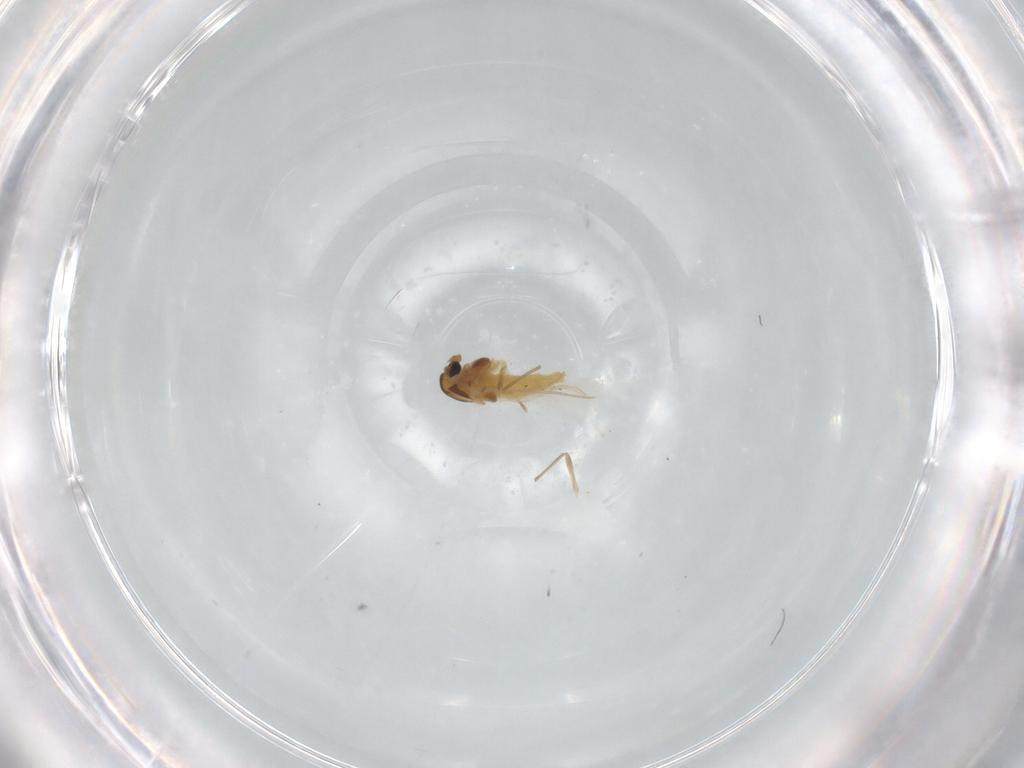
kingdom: Animalia
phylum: Arthropoda
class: Insecta
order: Diptera
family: Chironomidae
